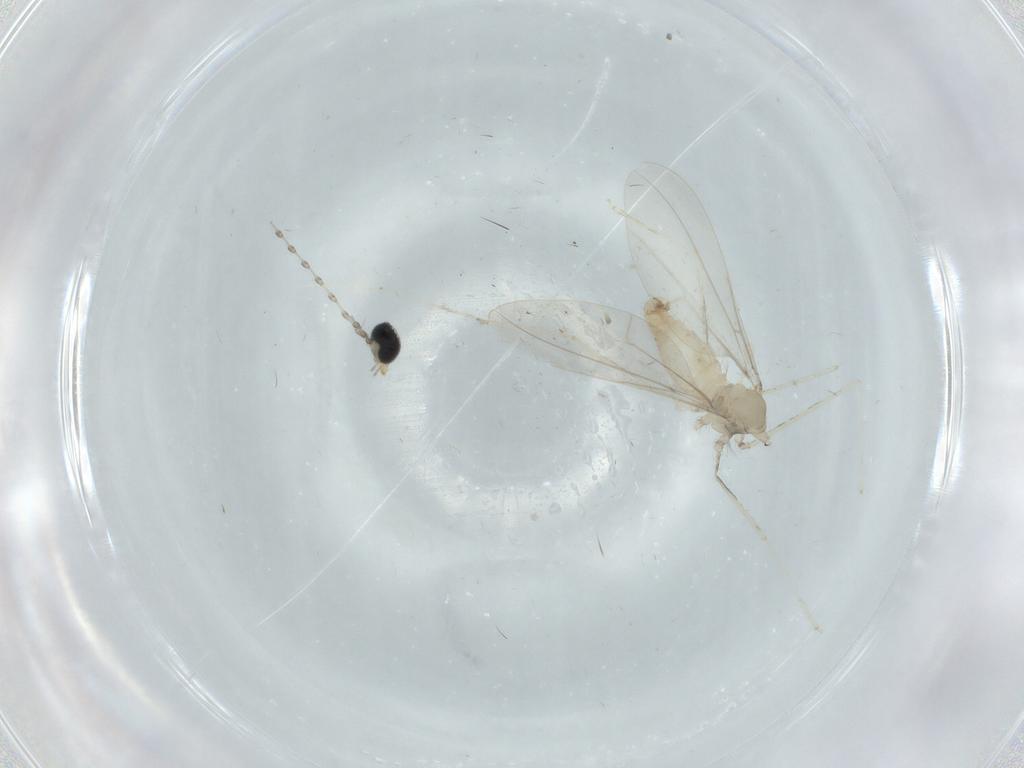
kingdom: Animalia
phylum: Arthropoda
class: Insecta
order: Diptera
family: Cecidomyiidae
